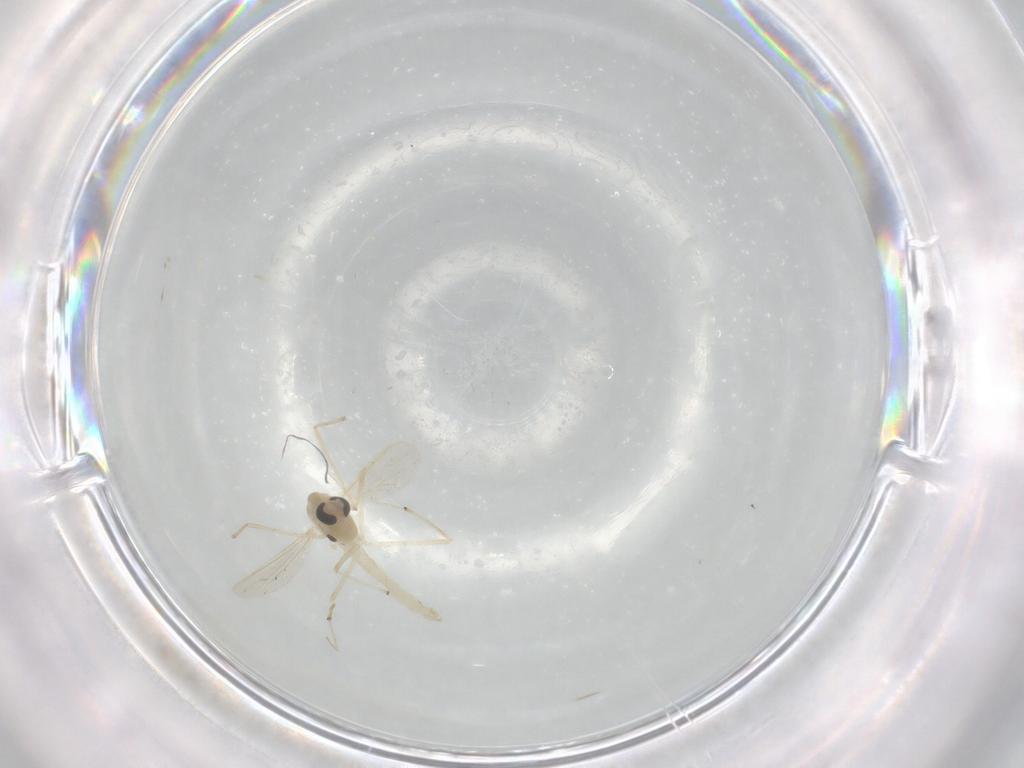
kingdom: Animalia
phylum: Arthropoda
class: Insecta
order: Diptera
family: Chironomidae
